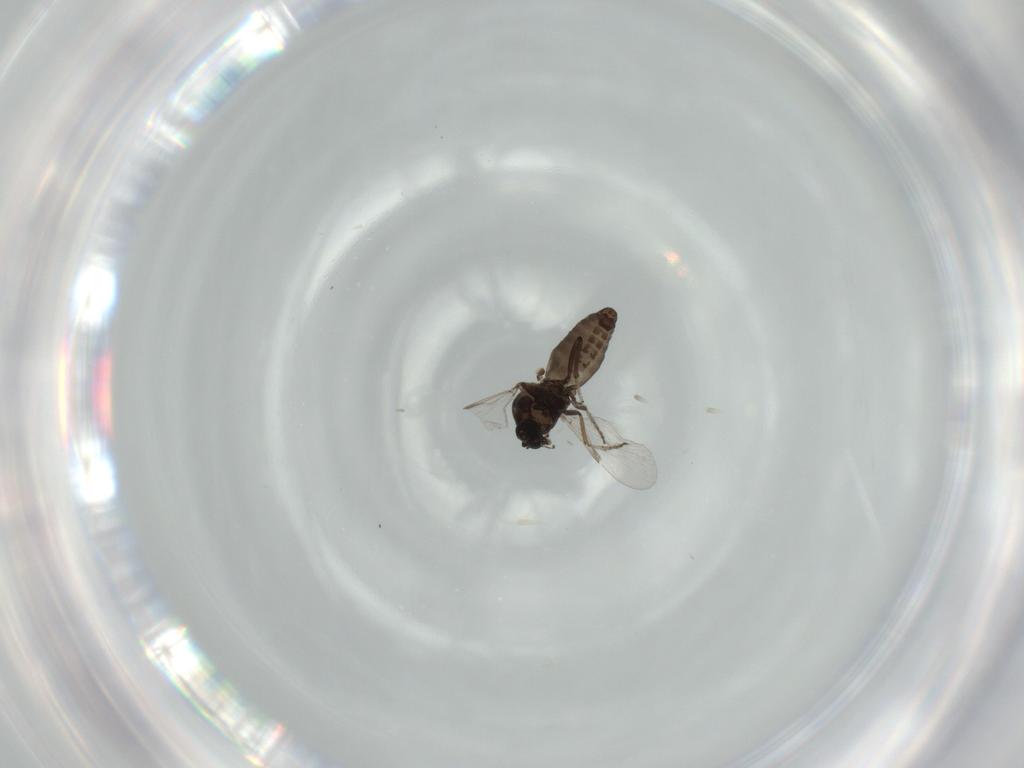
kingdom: Animalia
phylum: Arthropoda
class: Insecta
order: Diptera
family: Ceratopogonidae
